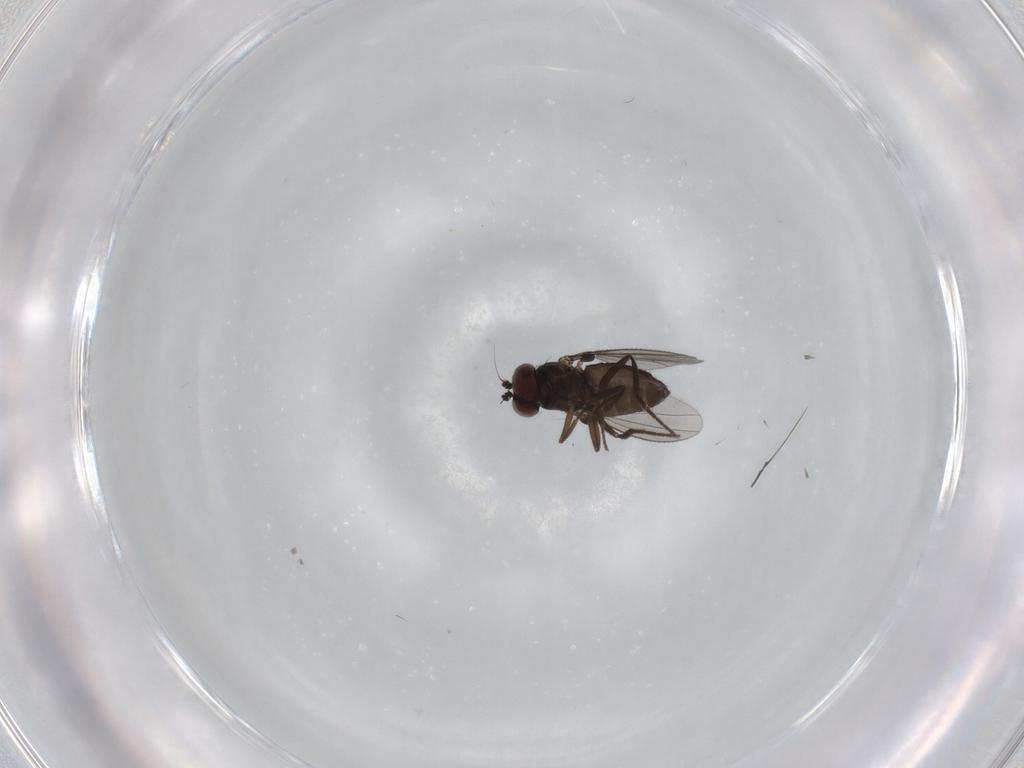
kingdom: Animalia
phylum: Arthropoda
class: Insecta
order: Diptera
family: Dolichopodidae
